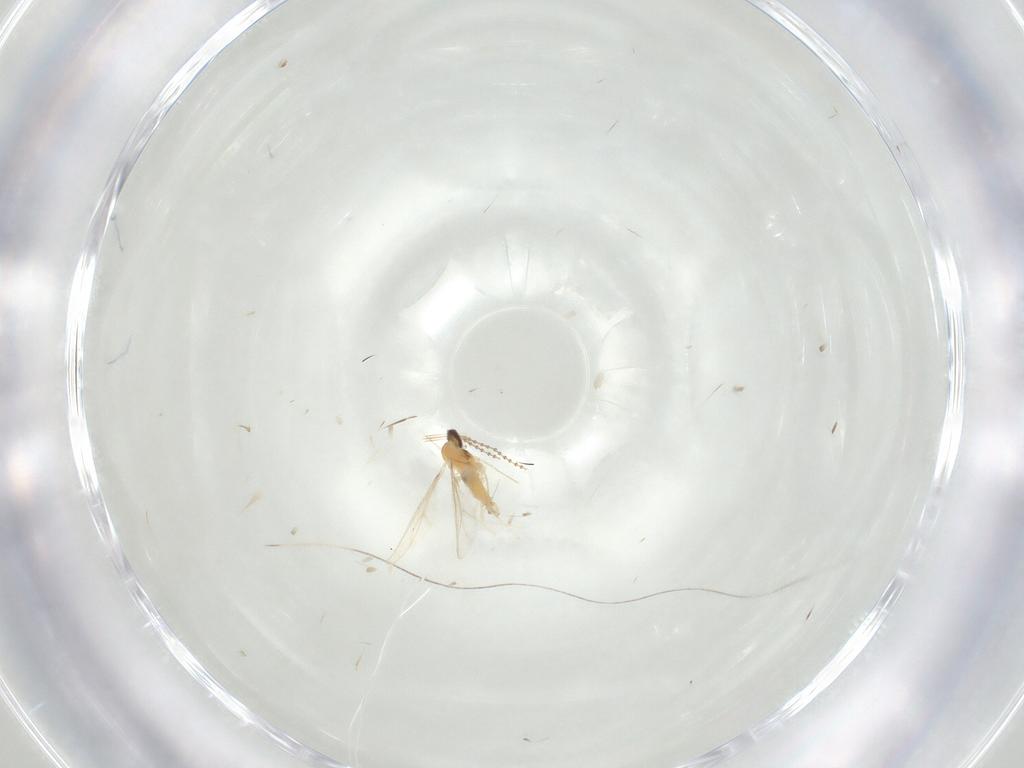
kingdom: Animalia
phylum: Arthropoda
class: Insecta
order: Diptera
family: Cecidomyiidae
